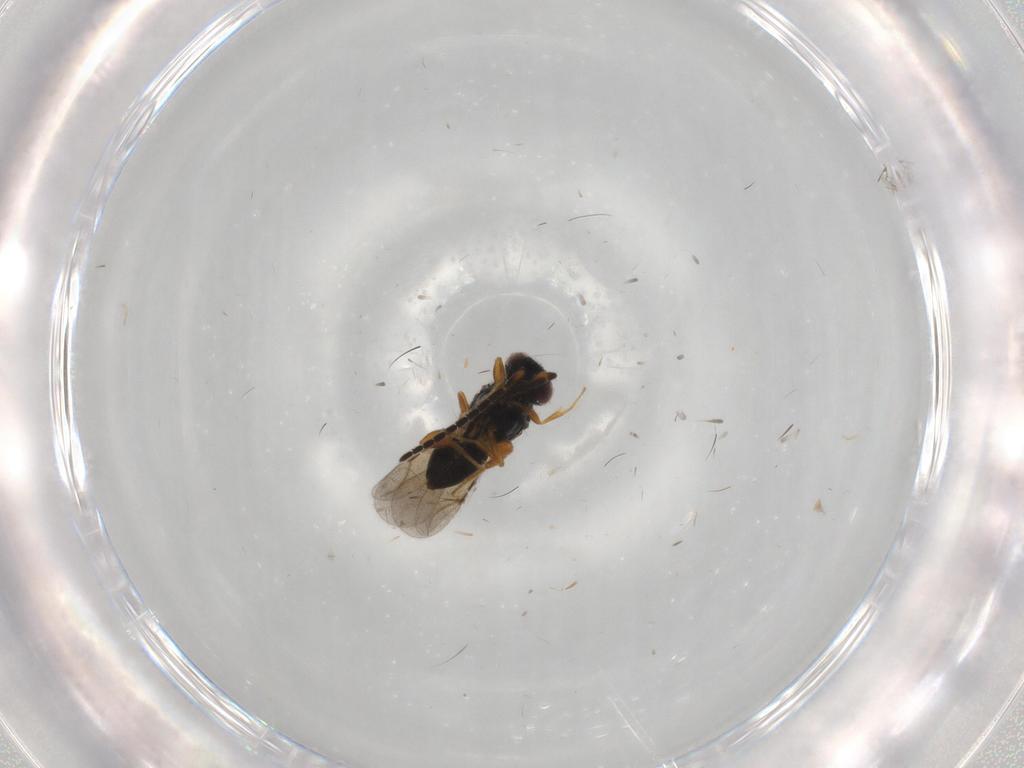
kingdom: Animalia
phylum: Arthropoda
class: Insecta
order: Hymenoptera
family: Ceraphronidae
